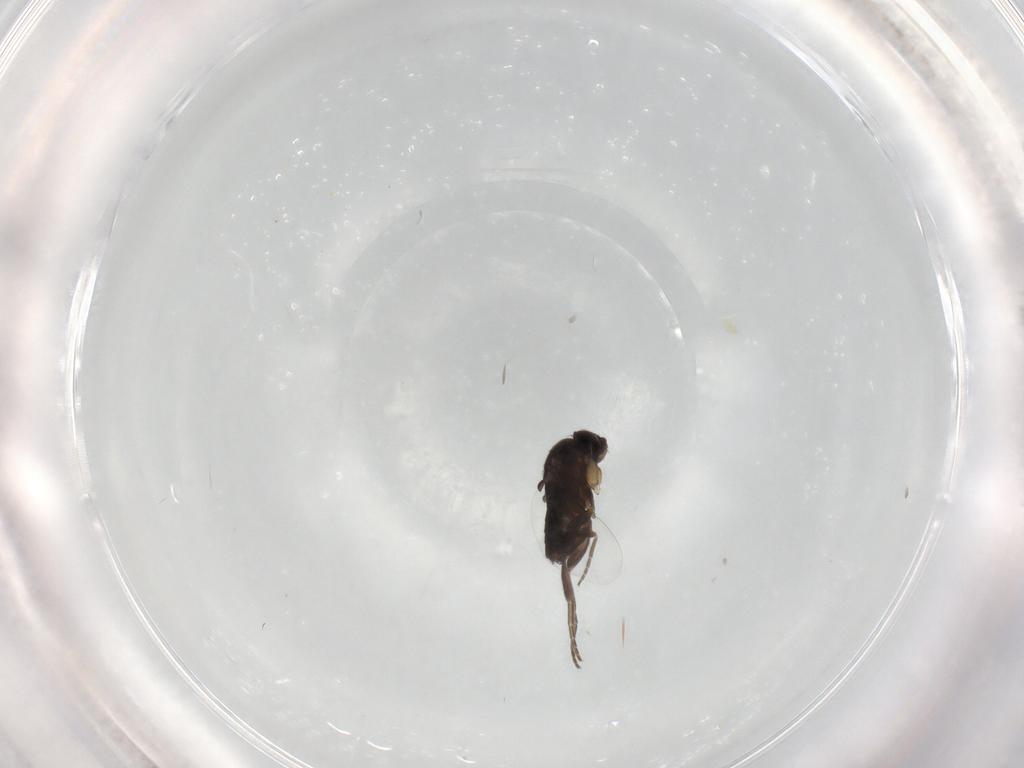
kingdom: Animalia
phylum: Arthropoda
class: Insecta
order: Diptera
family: Phoridae
